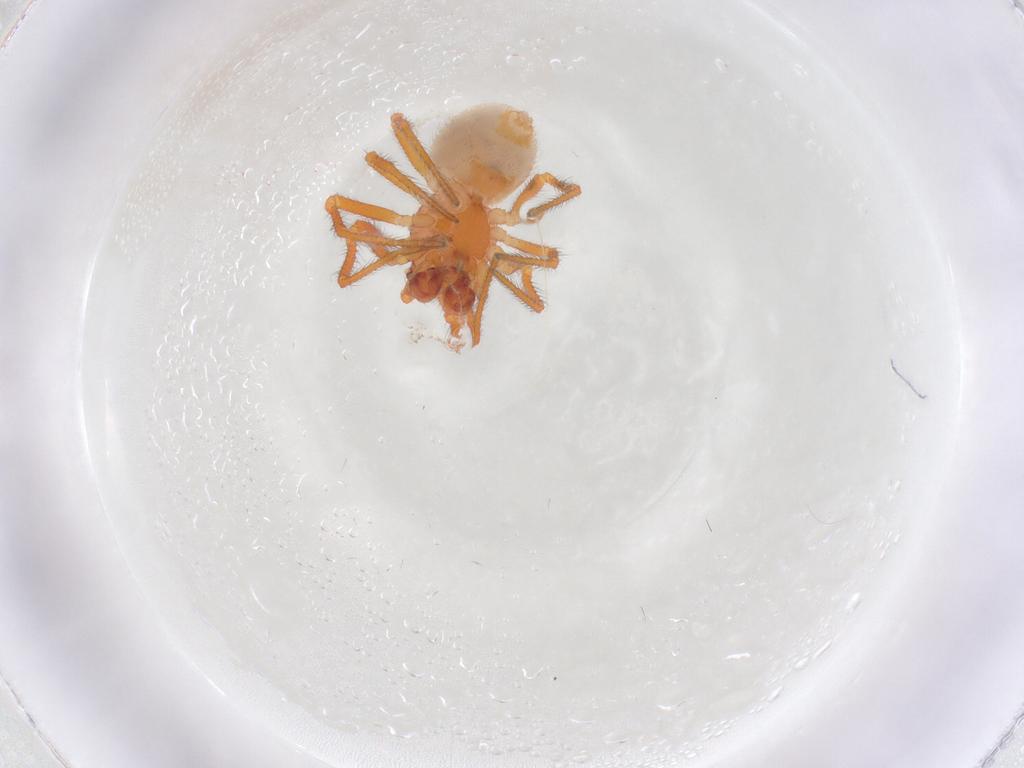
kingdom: Animalia
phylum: Arthropoda
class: Arachnida
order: Araneae
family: Theridiidae
